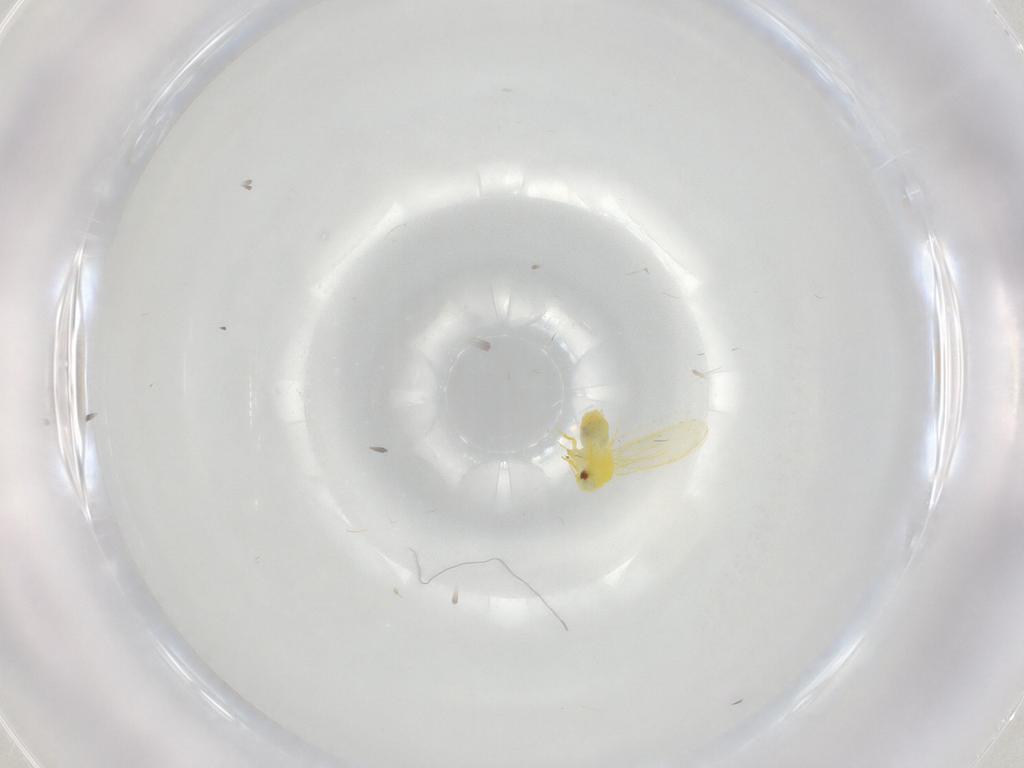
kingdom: Animalia
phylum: Arthropoda
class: Insecta
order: Hemiptera
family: Aleyrodidae
